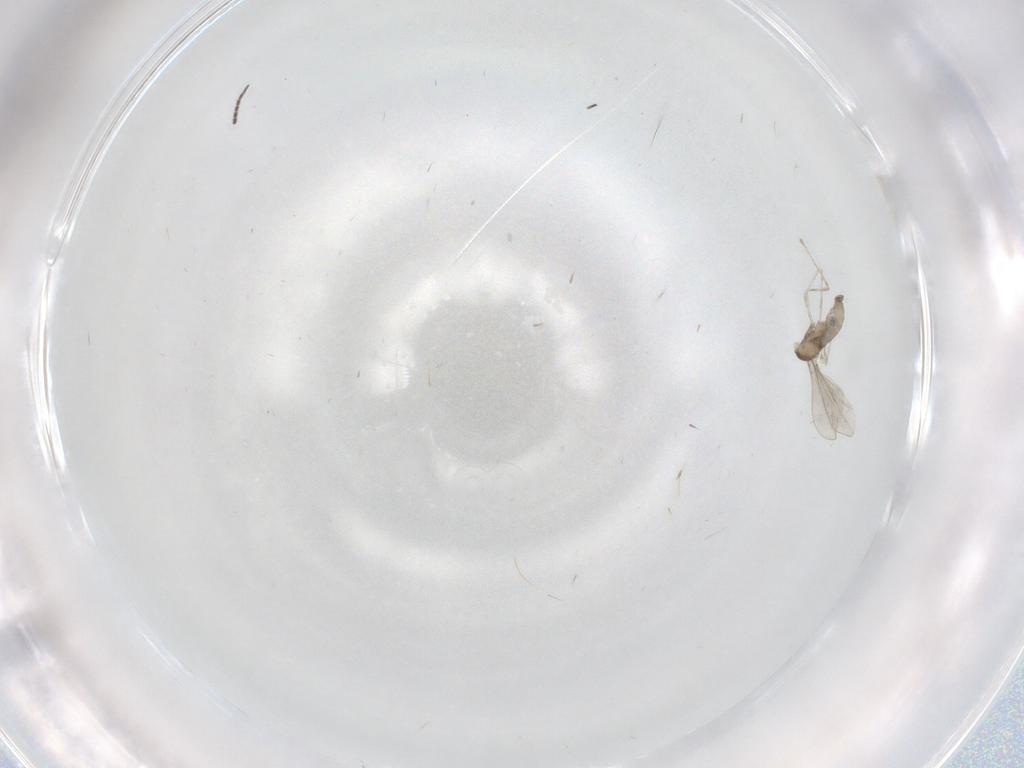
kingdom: Animalia
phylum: Arthropoda
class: Insecta
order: Diptera
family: Cecidomyiidae
